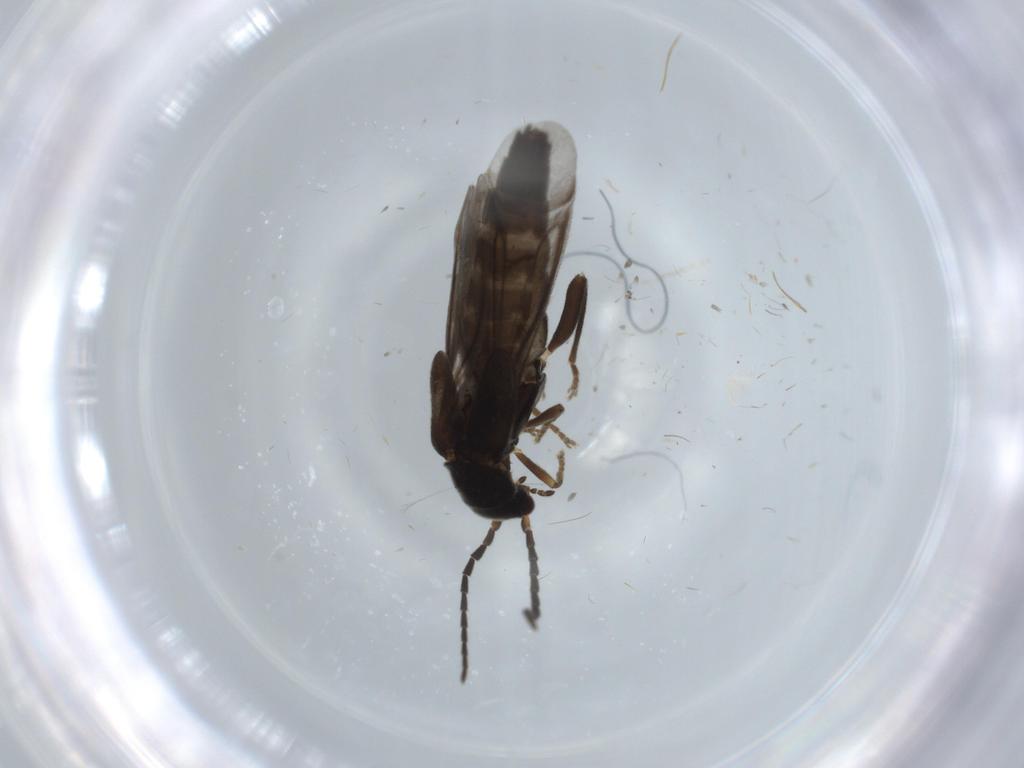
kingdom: Animalia
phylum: Arthropoda
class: Insecta
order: Coleoptera
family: Cantharidae
